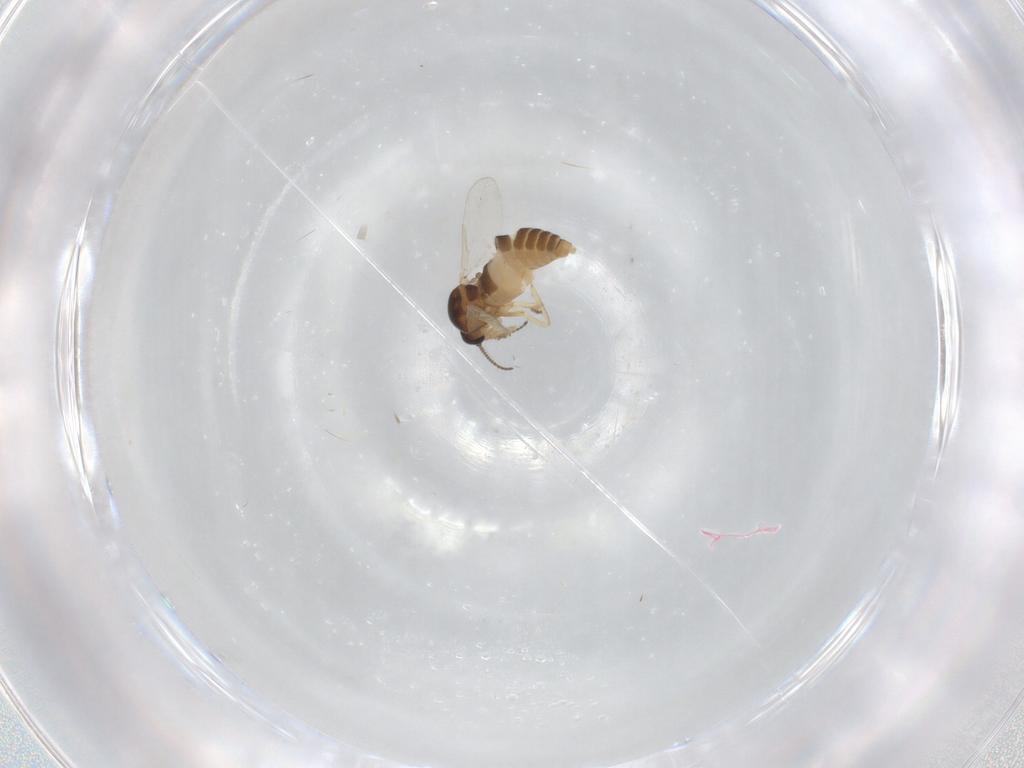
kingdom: Animalia
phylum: Arthropoda
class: Insecta
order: Diptera
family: Ceratopogonidae
